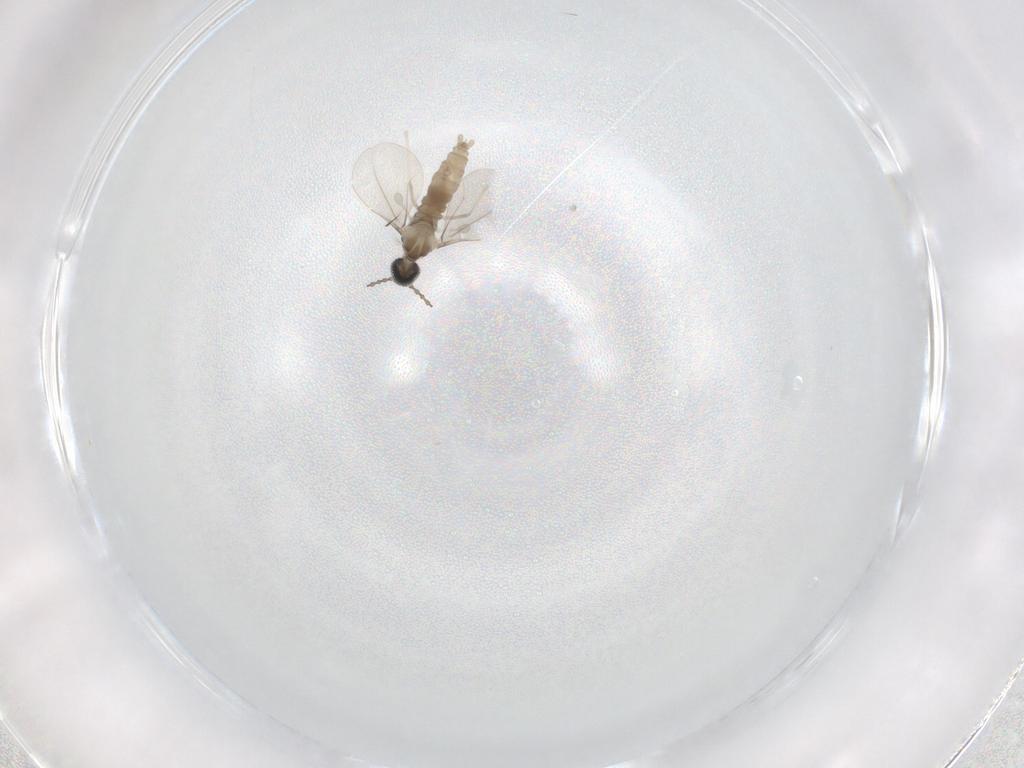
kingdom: Animalia
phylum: Arthropoda
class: Insecta
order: Diptera
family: Cecidomyiidae
